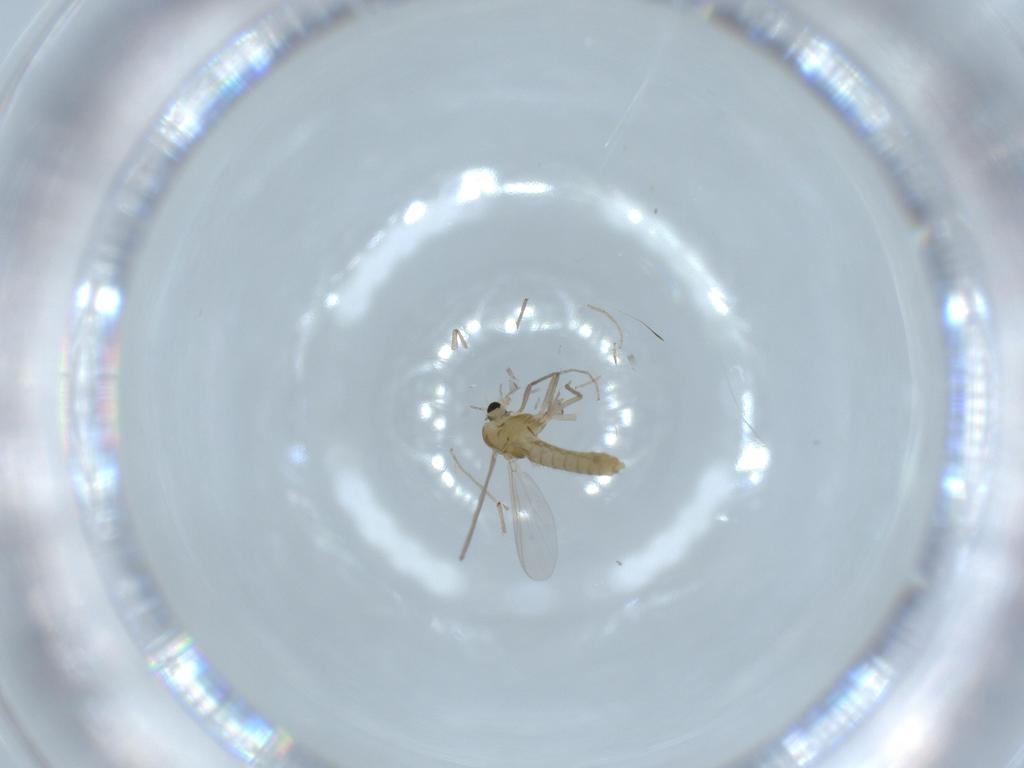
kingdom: Animalia
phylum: Arthropoda
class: Insecta
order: Diptera
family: Chironomidae
